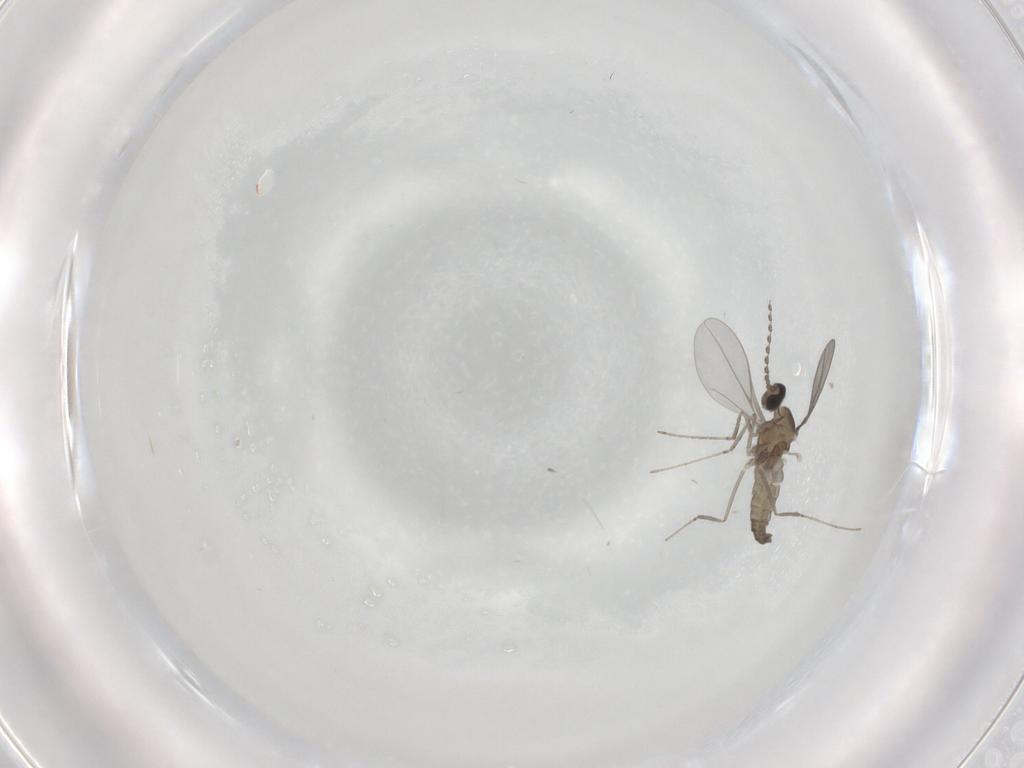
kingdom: Animalia
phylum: Arthropoda
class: Insecta
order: Diptera
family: Cecidomyiidae
